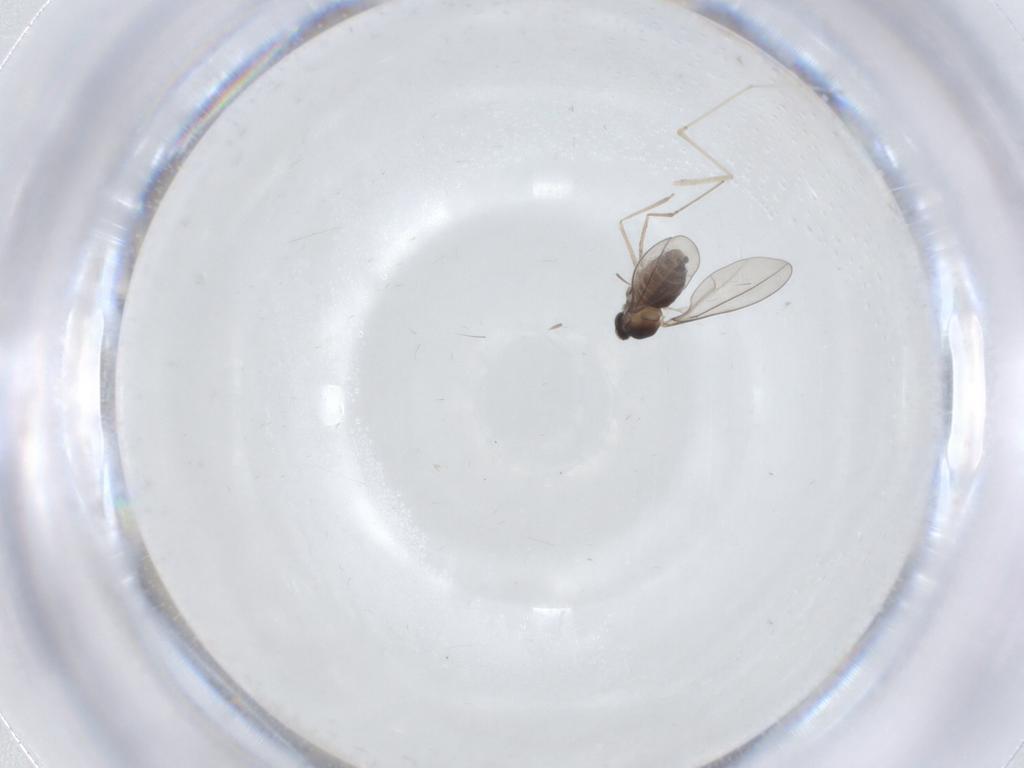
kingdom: Animalia
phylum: Arthropoda
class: Insecta
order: Diptera
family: Cecidomyiidae
